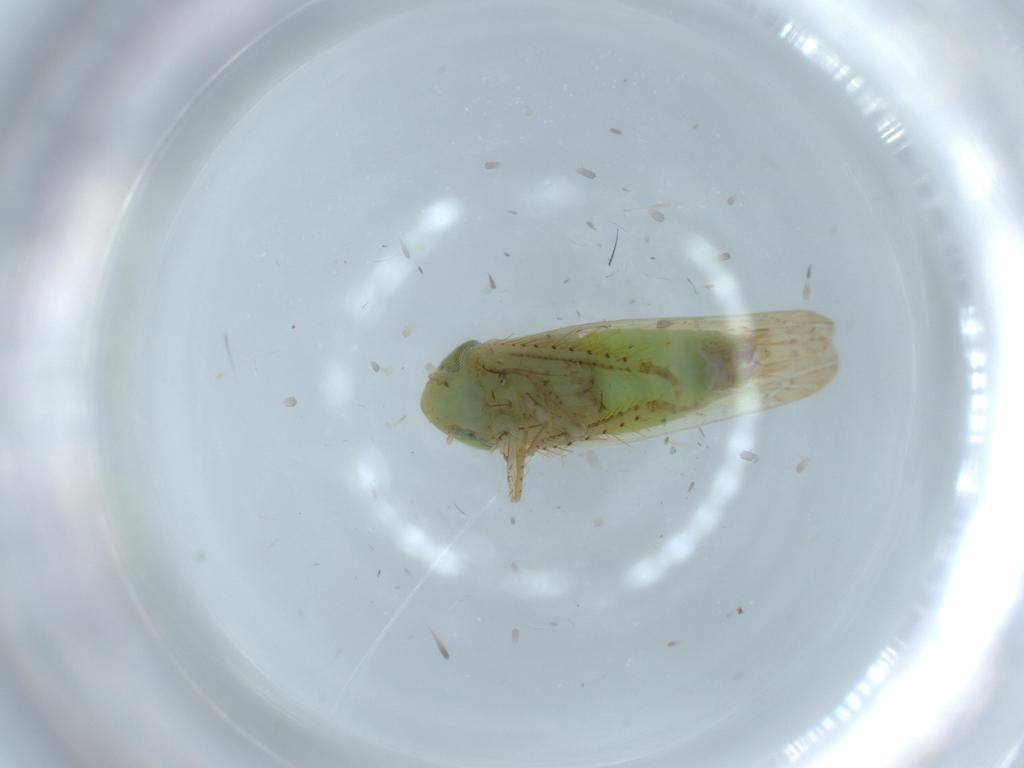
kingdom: Animalia
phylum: Arthropoda
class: Insecta
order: Hemiptera
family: Cicadellidae
